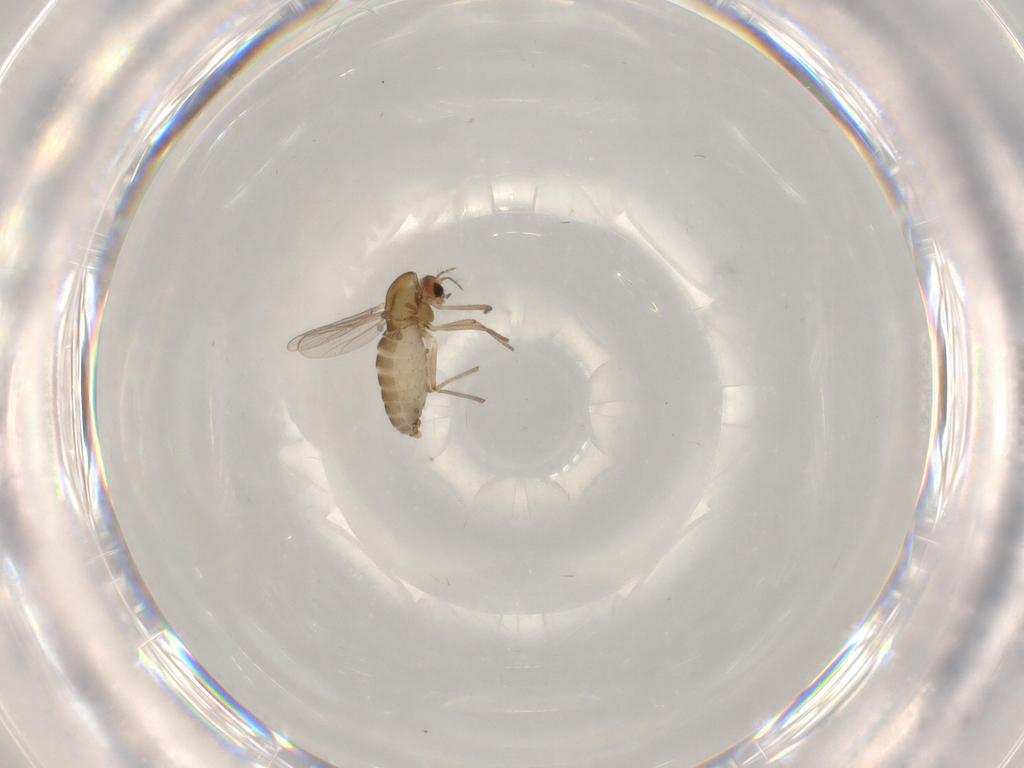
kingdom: Animalia
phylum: Arthropoda
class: Insecta
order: Diptera
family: Chironomidae
